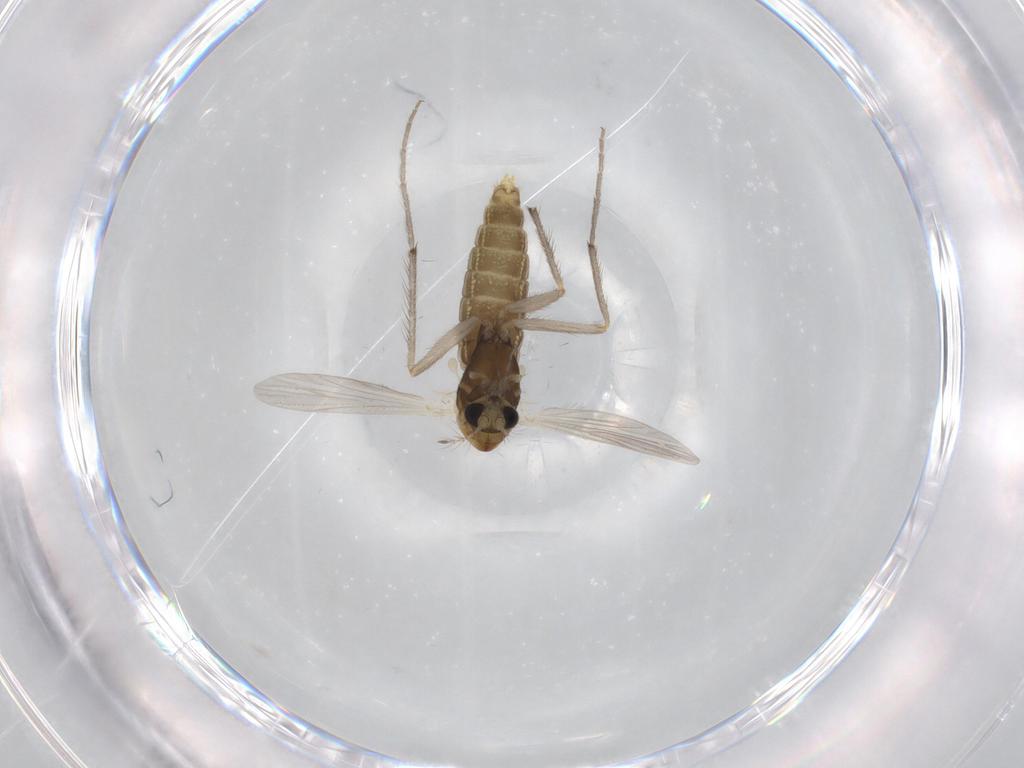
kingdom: Animalia
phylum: Arthropoda
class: Insecta
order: Diptera
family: Chironomidae
